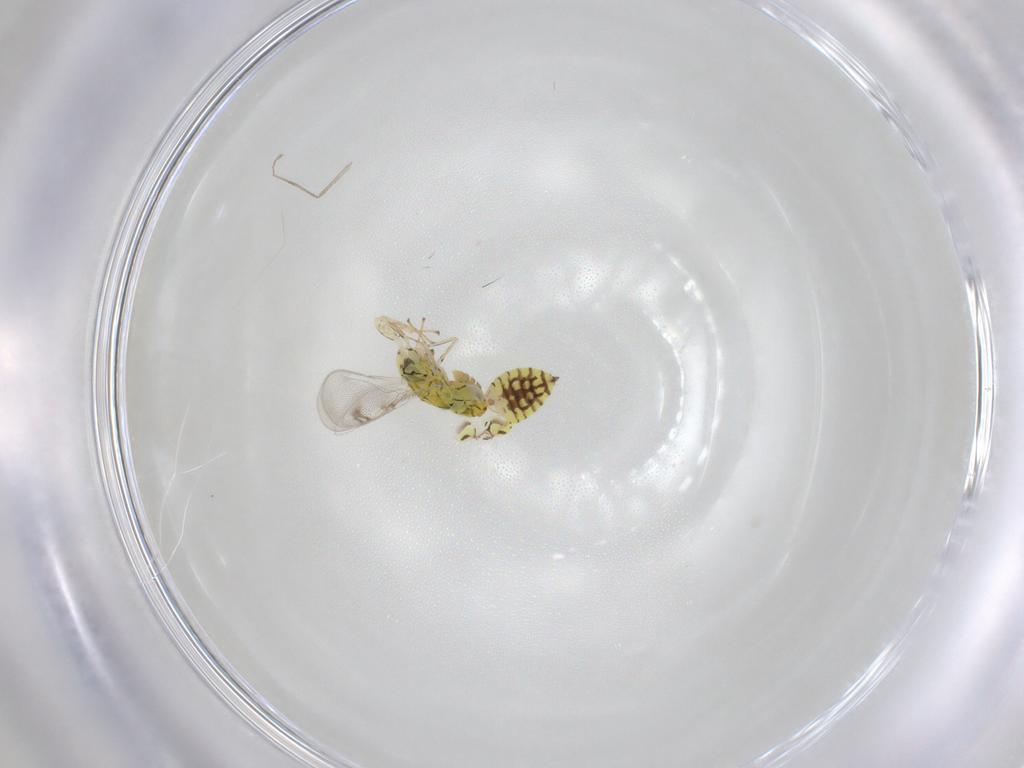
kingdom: Animalia
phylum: Arthropoda
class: Insecta
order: Hymenoptera
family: Eulophidae
